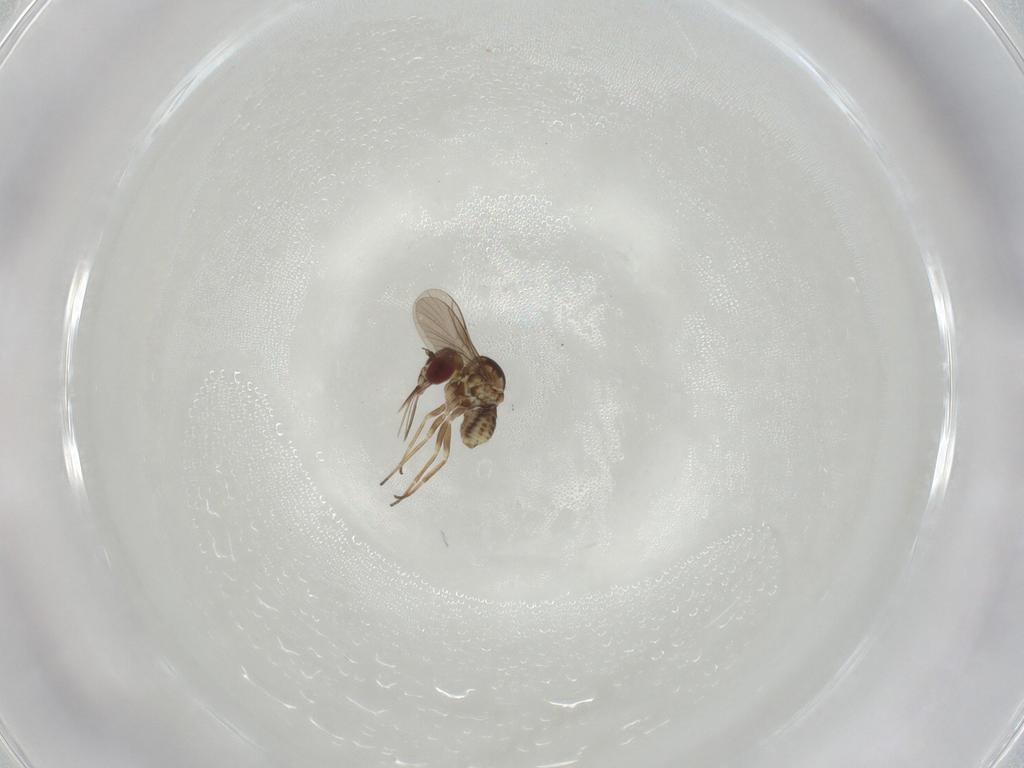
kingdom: Animalia
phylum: Arthropoda
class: Insecta
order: Diptera
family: Bombyliidae
